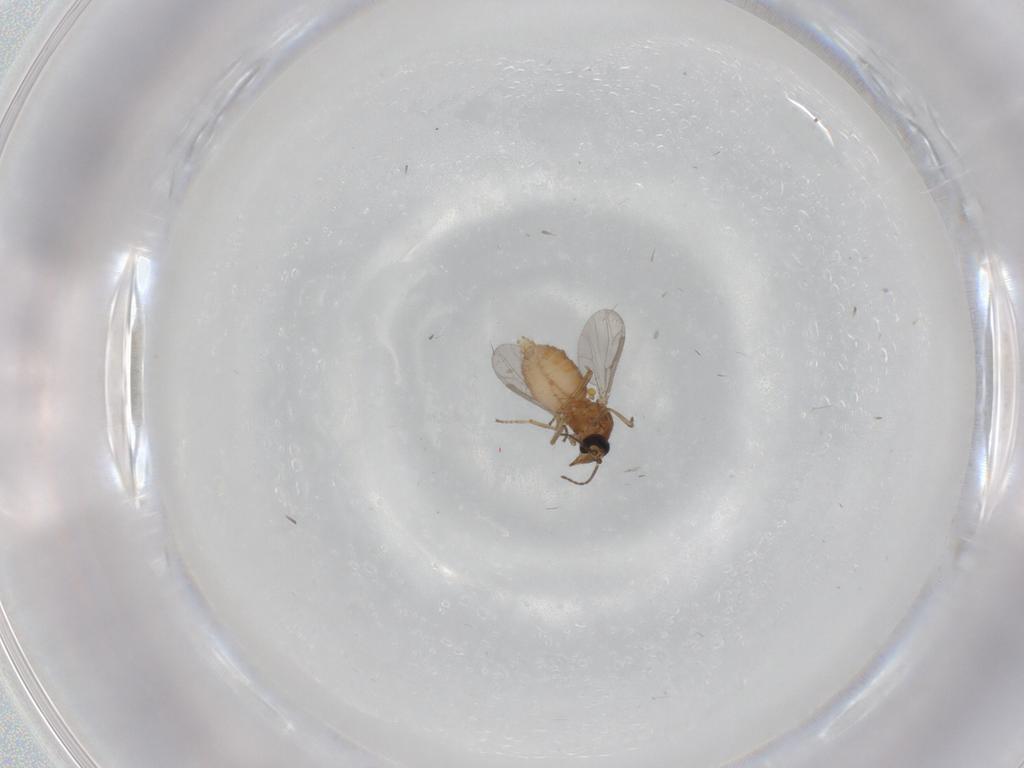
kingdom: Animalia
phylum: Arthropoda
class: Insecta
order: Diptera
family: Ceratopogonidae
